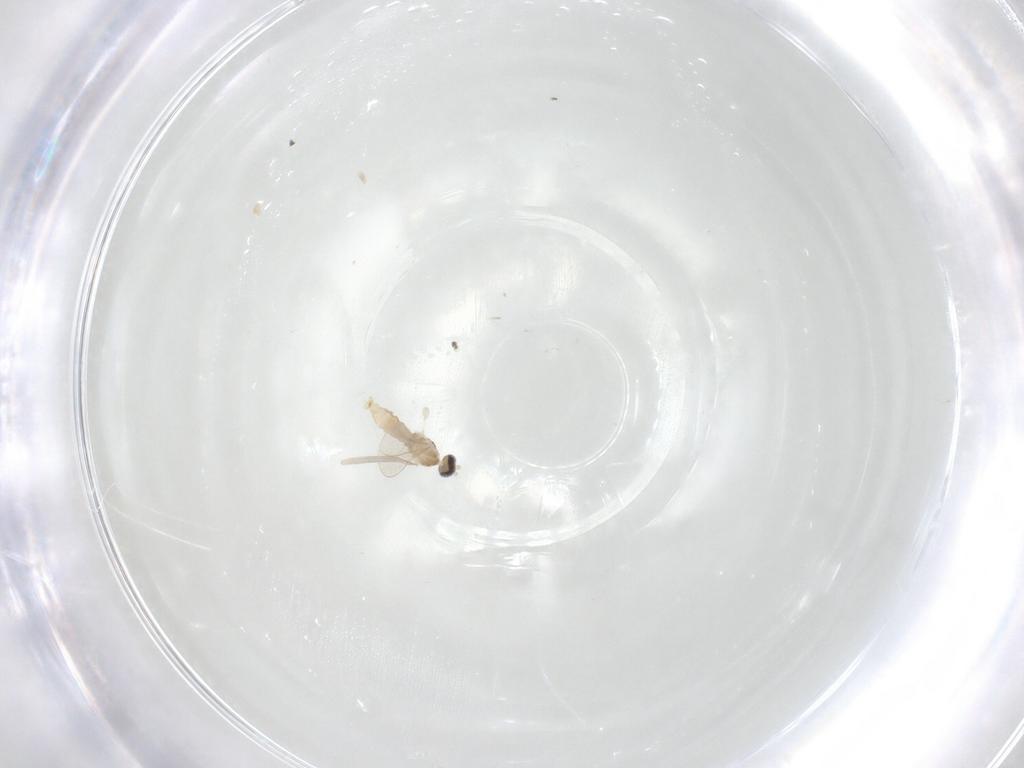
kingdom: Animalia
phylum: Arthropoda
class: Insecta
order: Diptera
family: Cecidomyiidae
